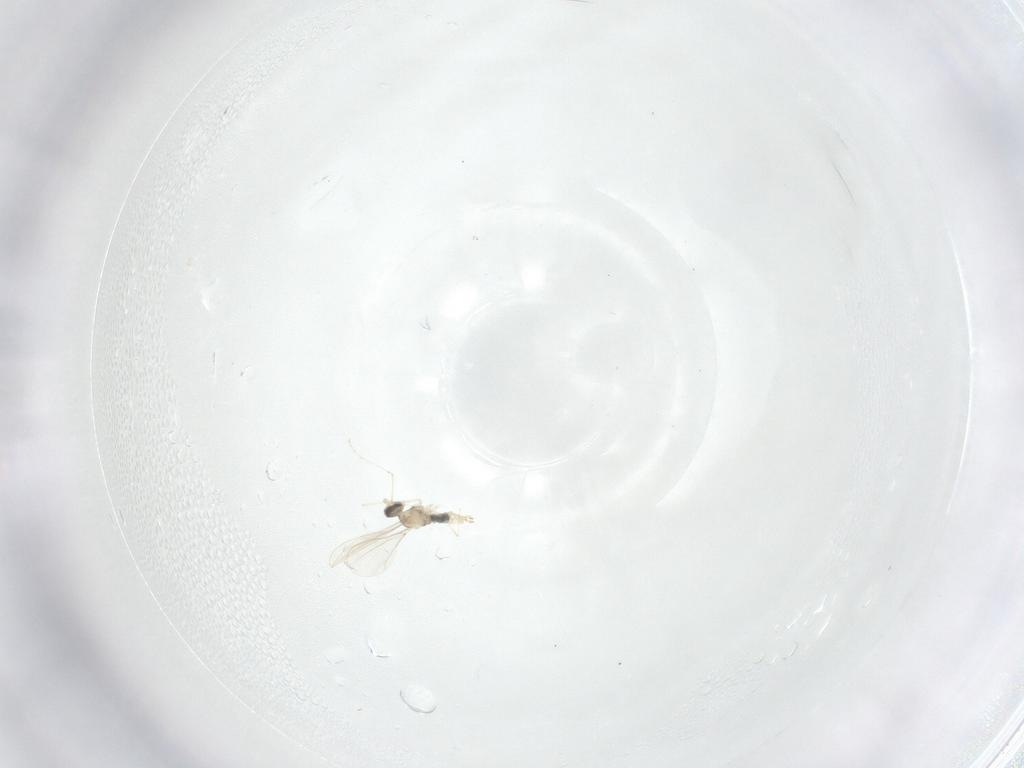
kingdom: Animalia
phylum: Arthropoda
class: Insecta
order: Diptera
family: Cecidomyiidae
